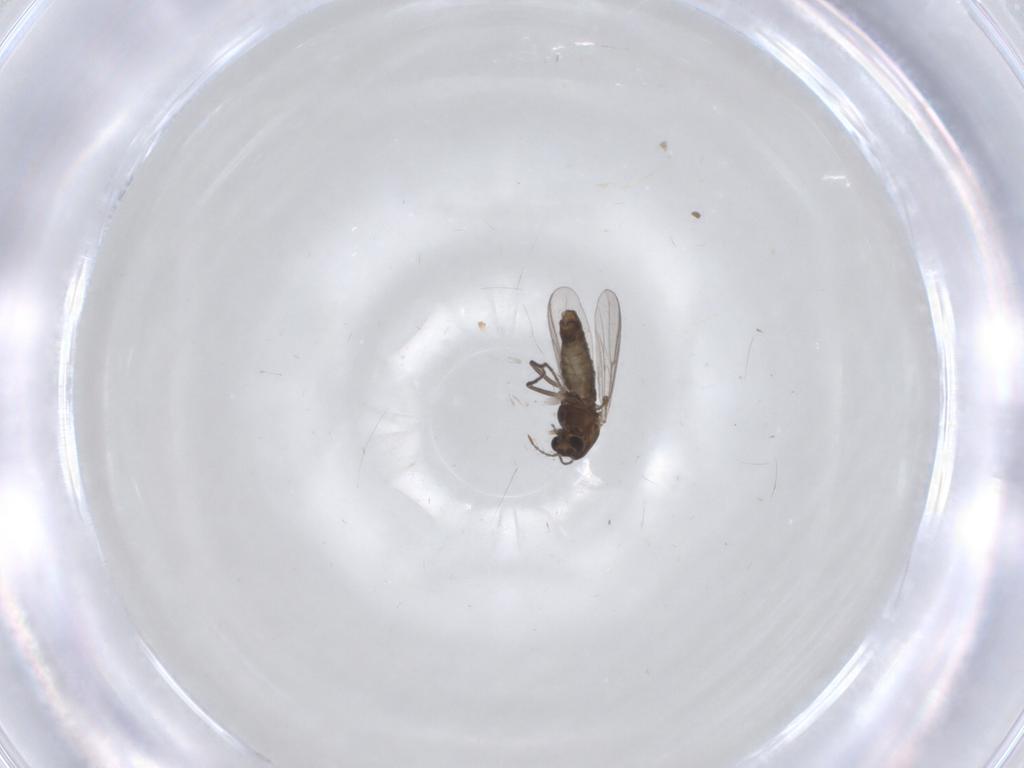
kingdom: Animalia
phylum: Arthropoda
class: Insecta
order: Diptera
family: Chironomidae
